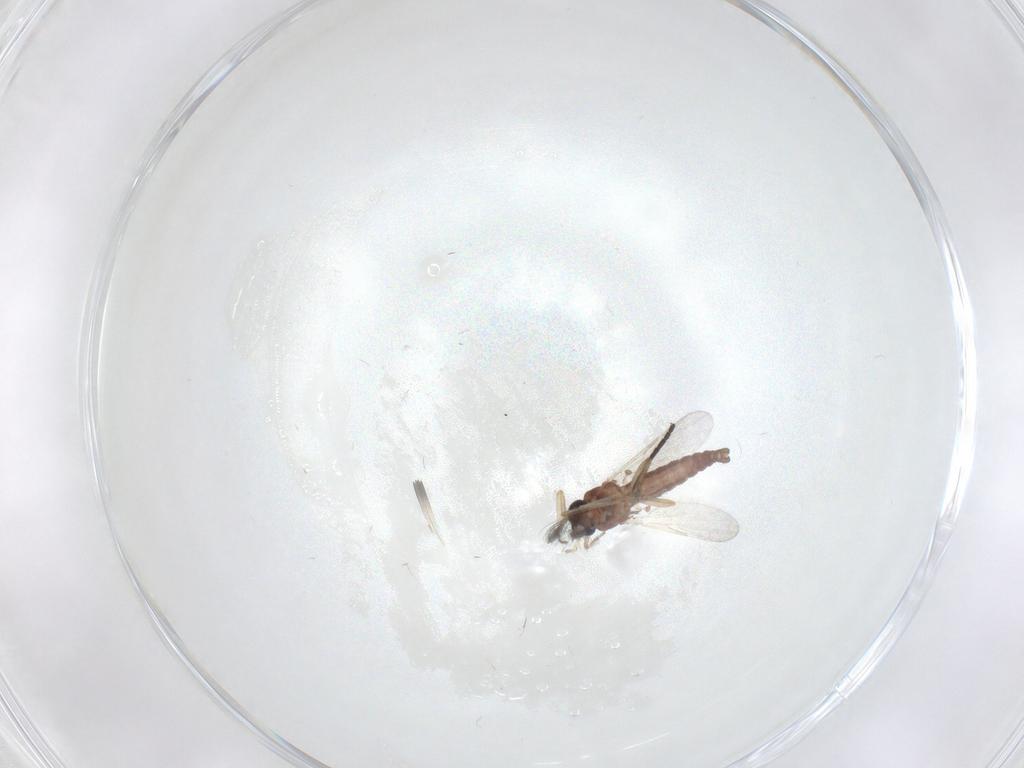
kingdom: Animalia
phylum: Arthropoda
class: Insecta
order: Diptera
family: Ceratopogonidae
